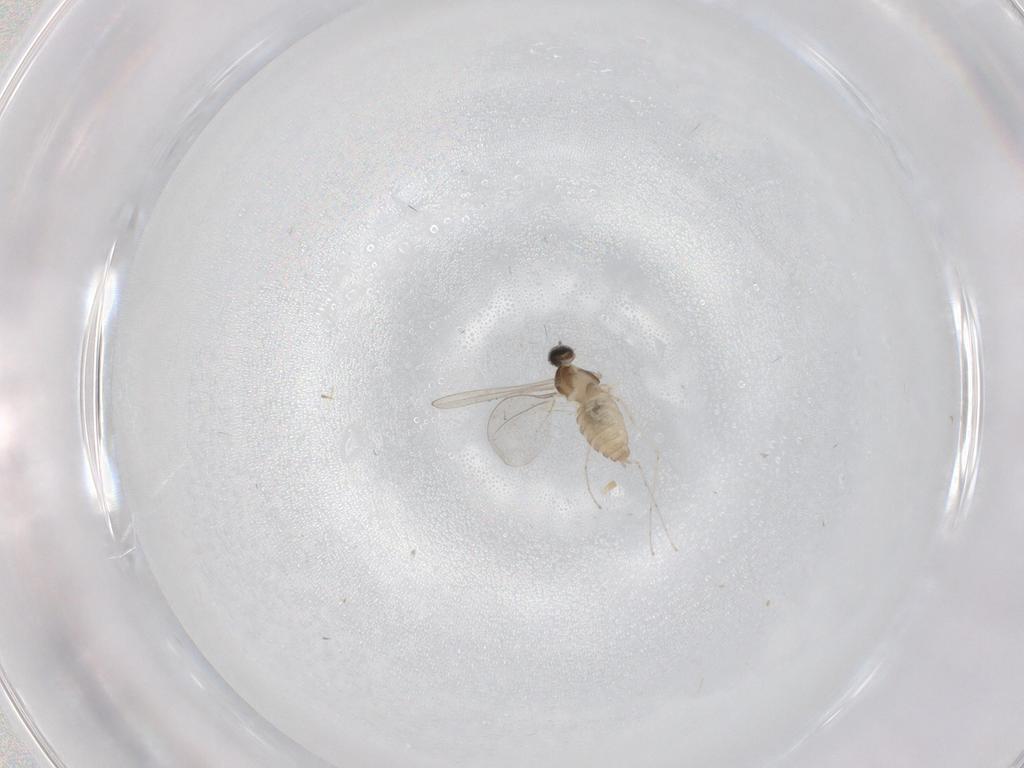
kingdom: Animalia
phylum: Arthropoda
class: Insecta
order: Diptera
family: Cecidomyiidae
